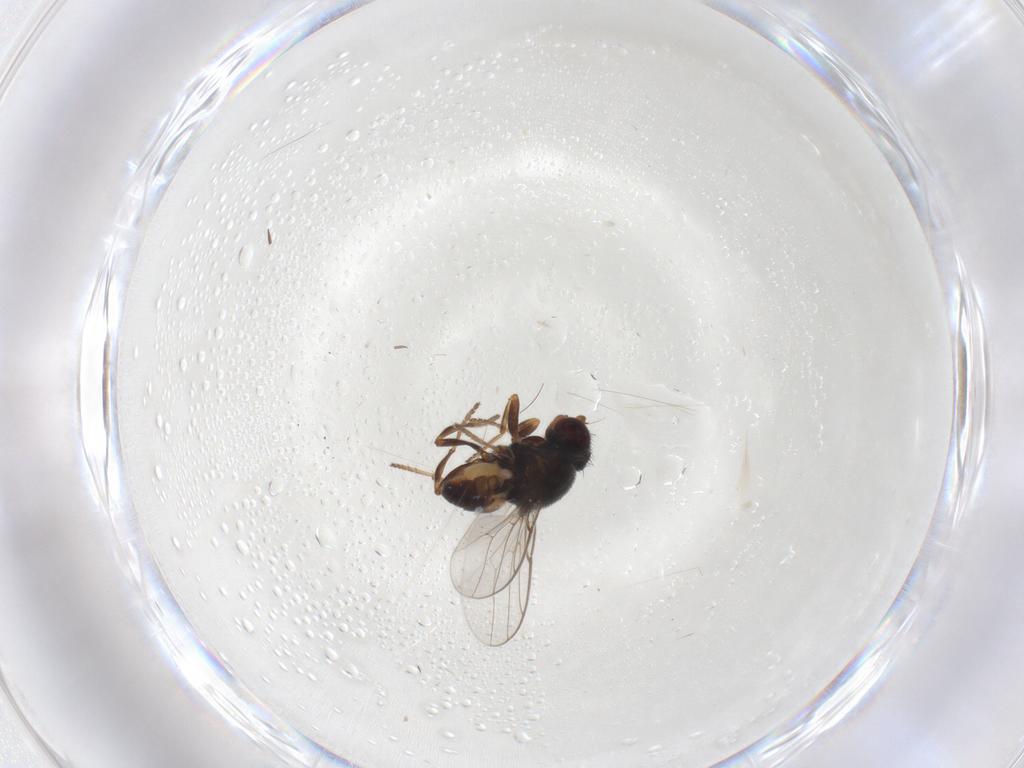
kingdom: Animalia
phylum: Arthropoda
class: Insecta
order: Diptera
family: Chloropidae
